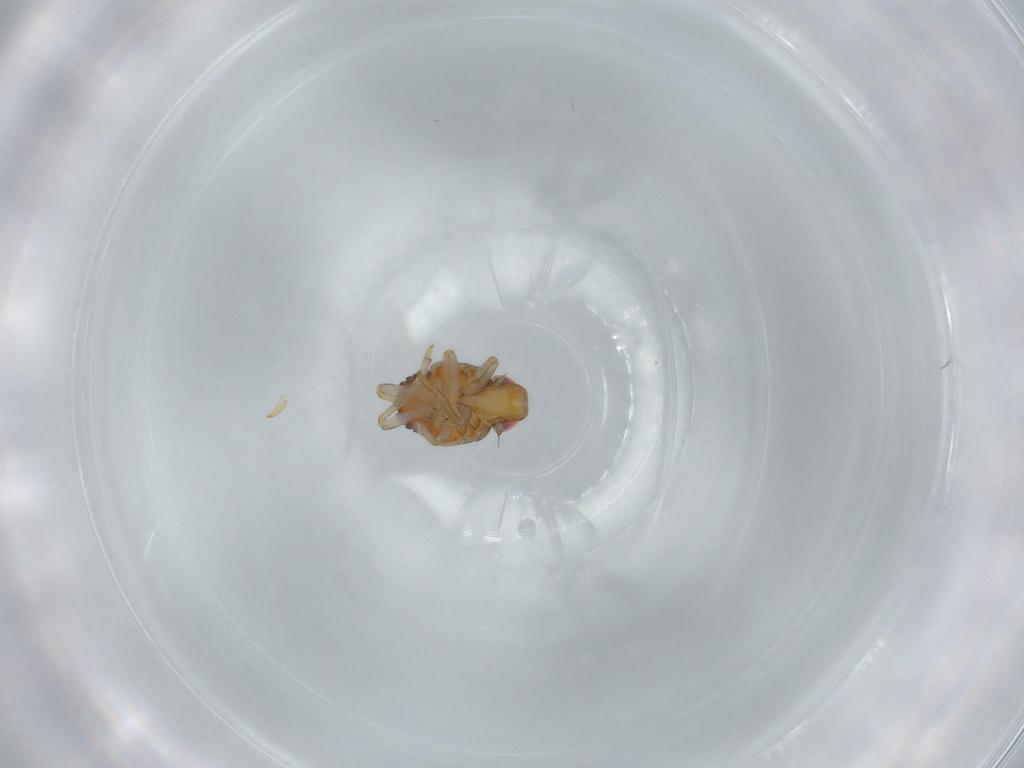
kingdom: Animalia
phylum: Arthropoda
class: Insecta
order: Hemiptera
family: Issidae
